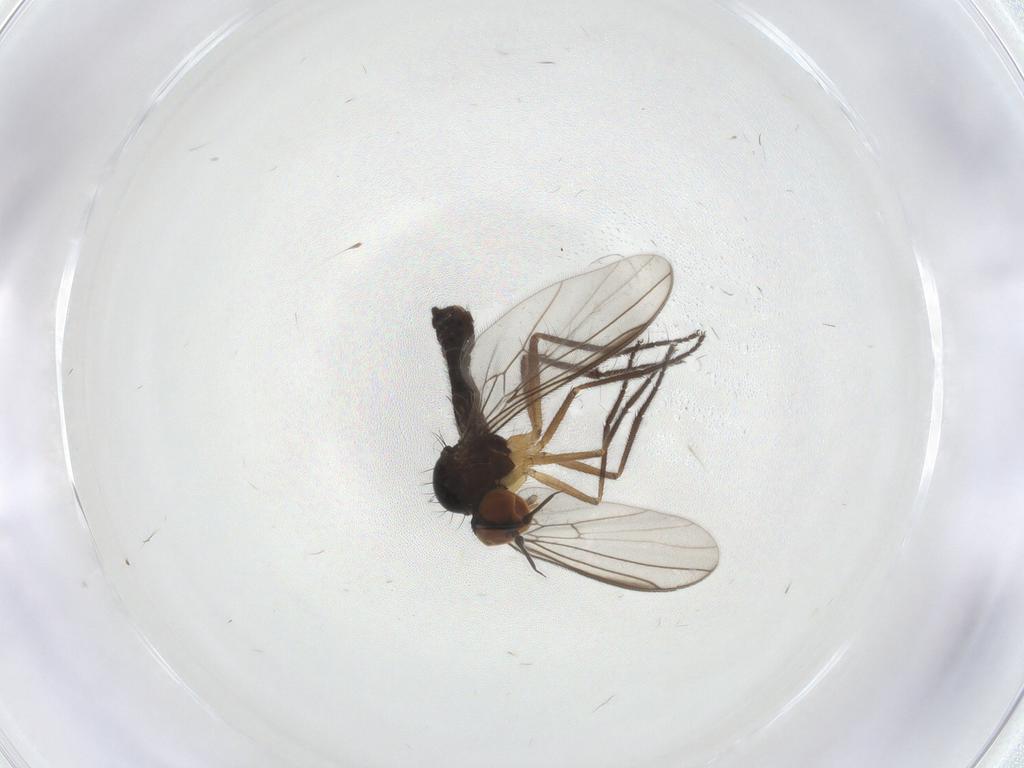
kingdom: Animalia
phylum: Arthropoda
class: Insecta
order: Diptera
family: Empididae
